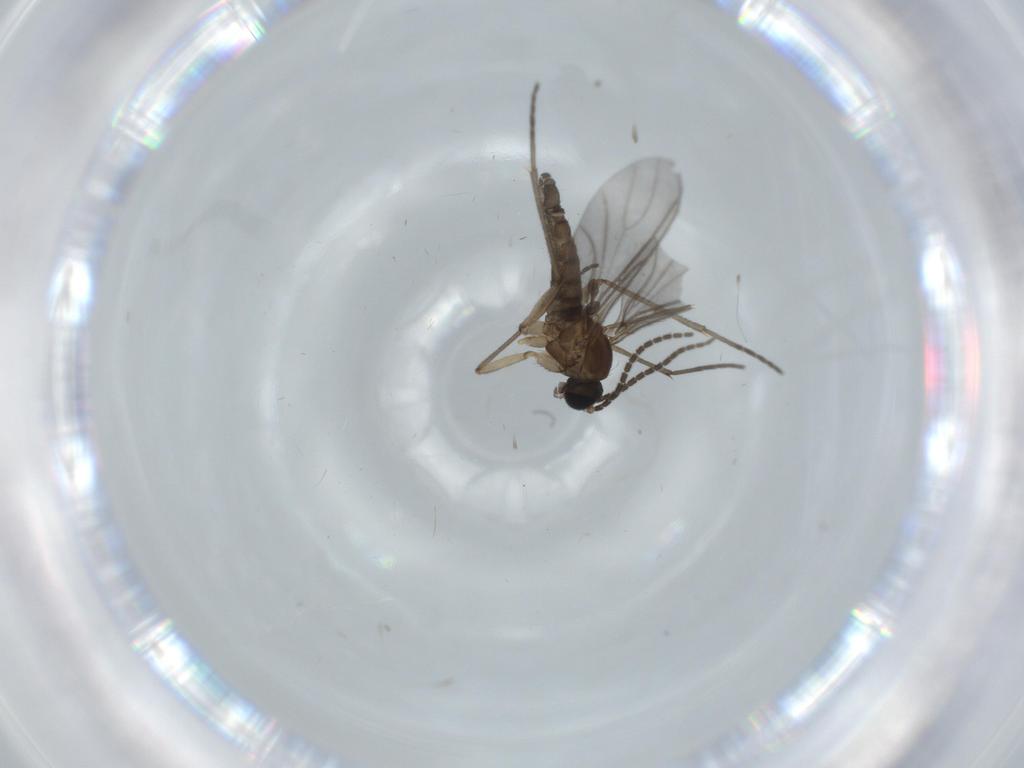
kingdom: Animalia
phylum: Arthropoda
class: Insecta
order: Diptera
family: Sciaridae
